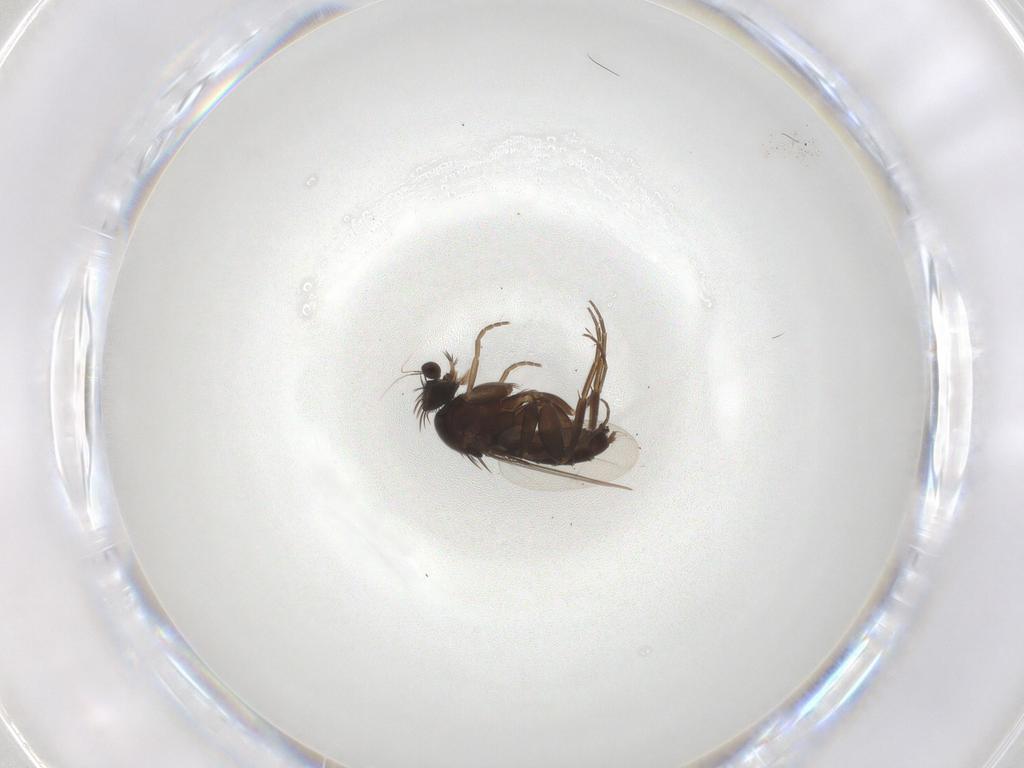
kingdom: Animalia
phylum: Arthropoda
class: Insecta
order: Diptera
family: Phoridae
